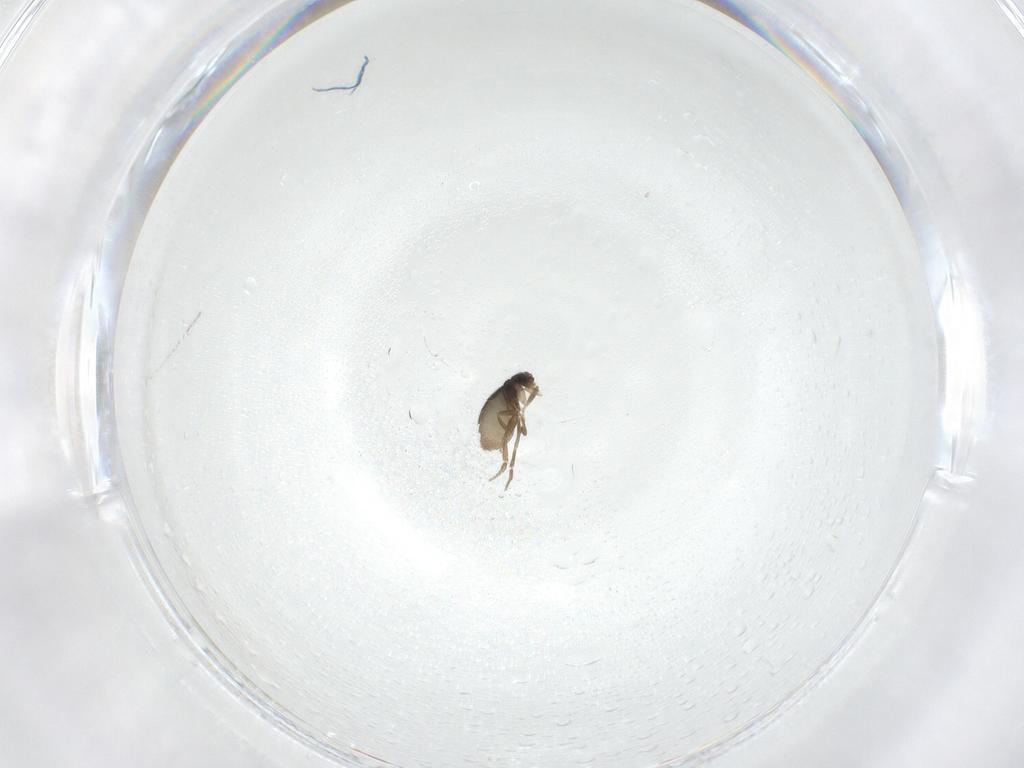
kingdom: Animalia
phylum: Arthropoda
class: Insecta
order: Diptera
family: Phoridae
